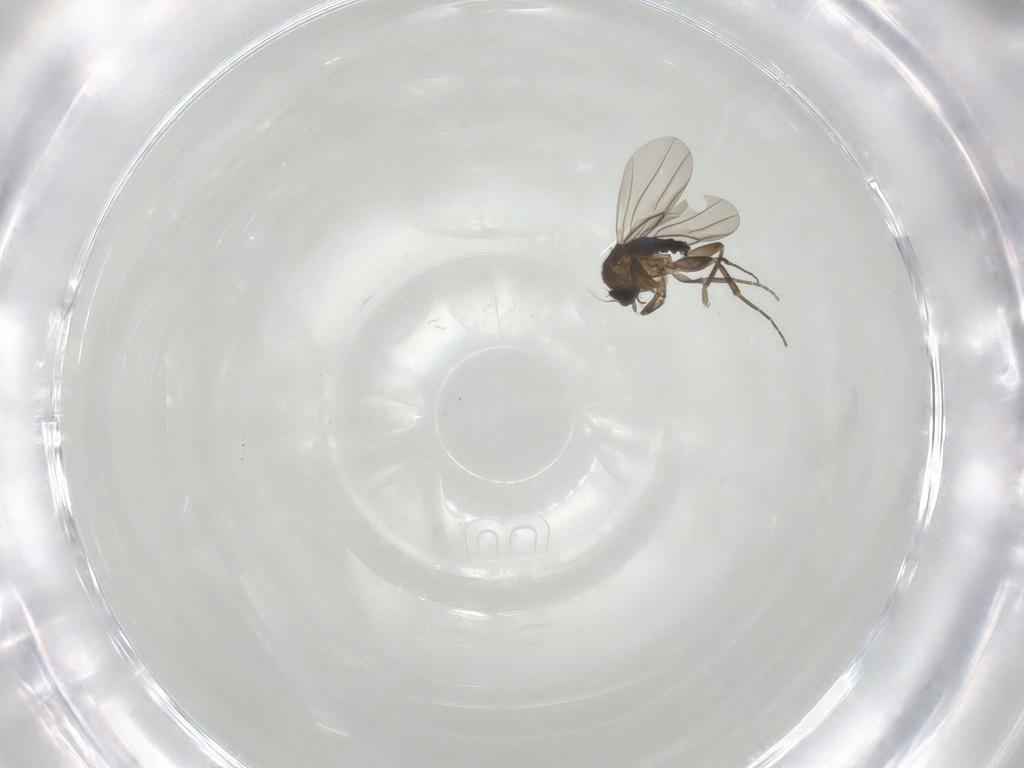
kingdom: Animalia
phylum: Arthropoda
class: Insecta
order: Diptera
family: Phoridae
